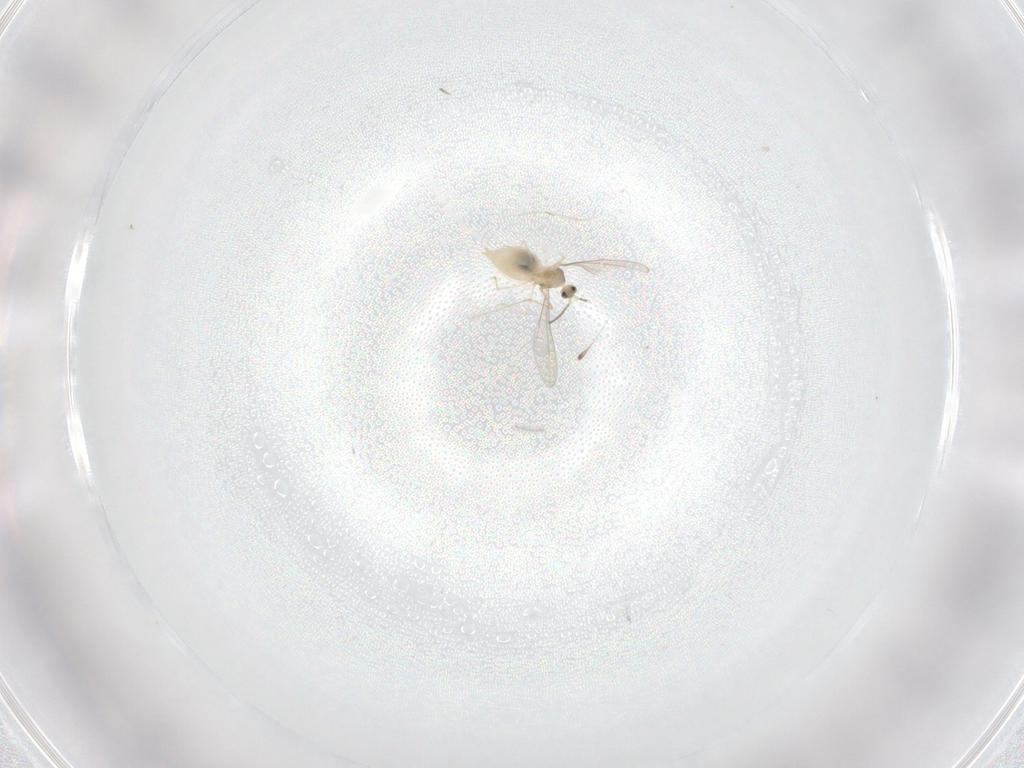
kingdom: Animalia
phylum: Arthropoda
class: Insecta
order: Diptera
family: Cecidomyiidae
